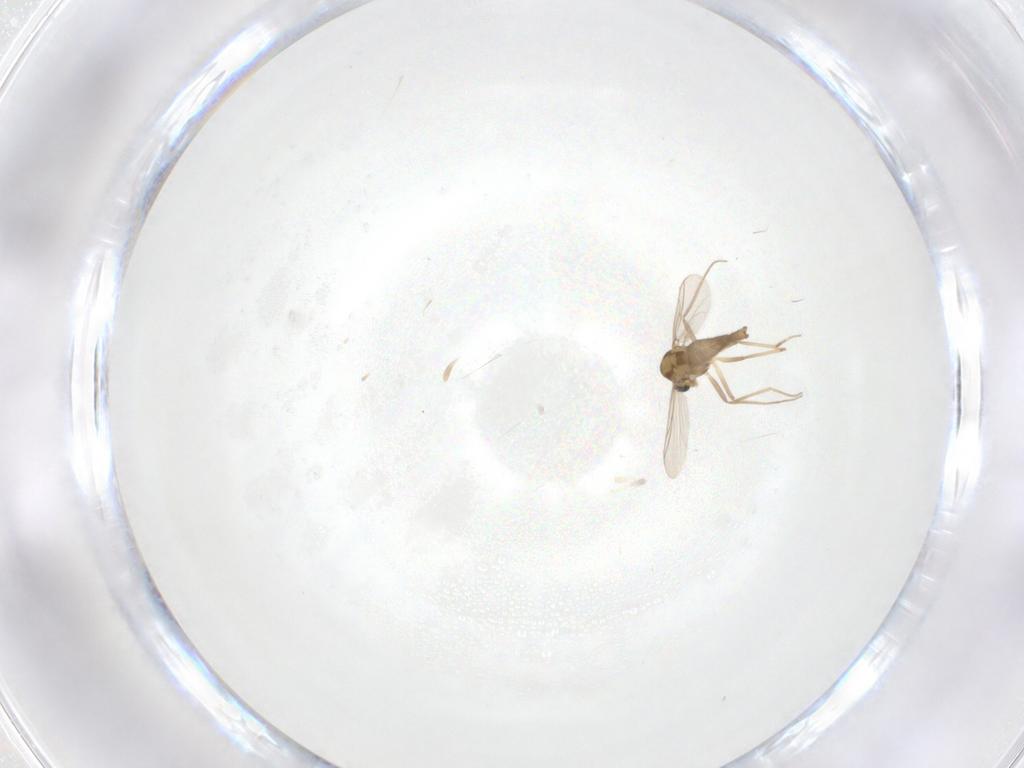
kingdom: Animalia
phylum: Arthropoda
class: Insecta
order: Diptera
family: Chironomidae
